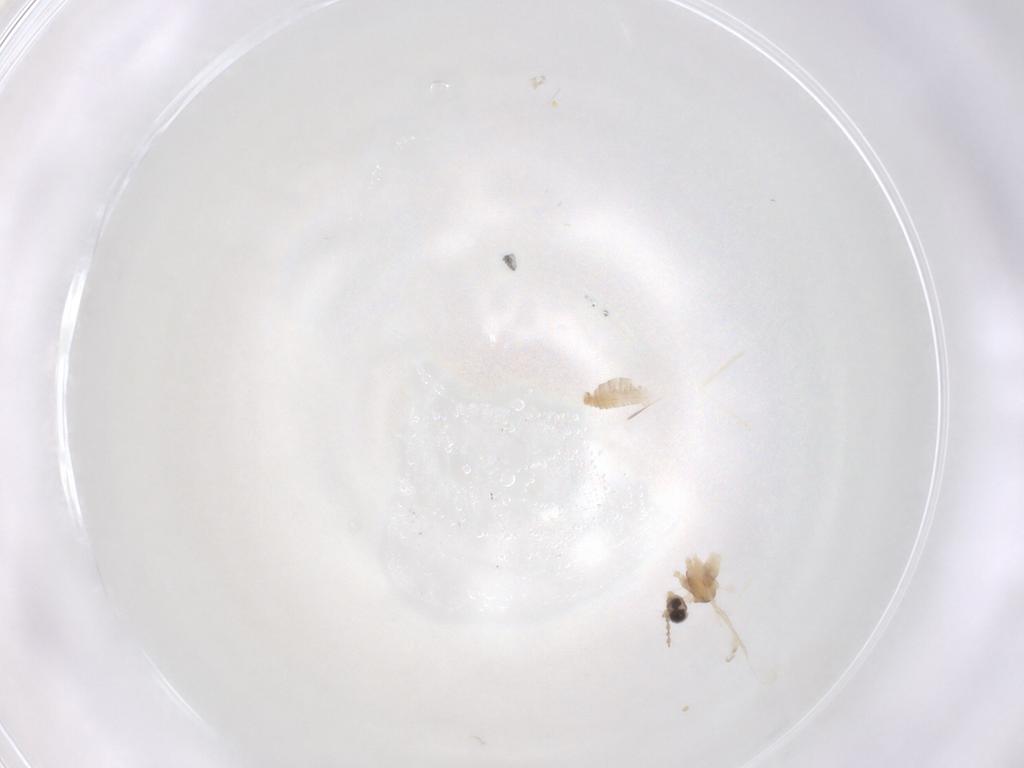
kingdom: Animalia
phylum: Arthropoda
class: Insecta
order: Diptera
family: Cecidomyiidae
